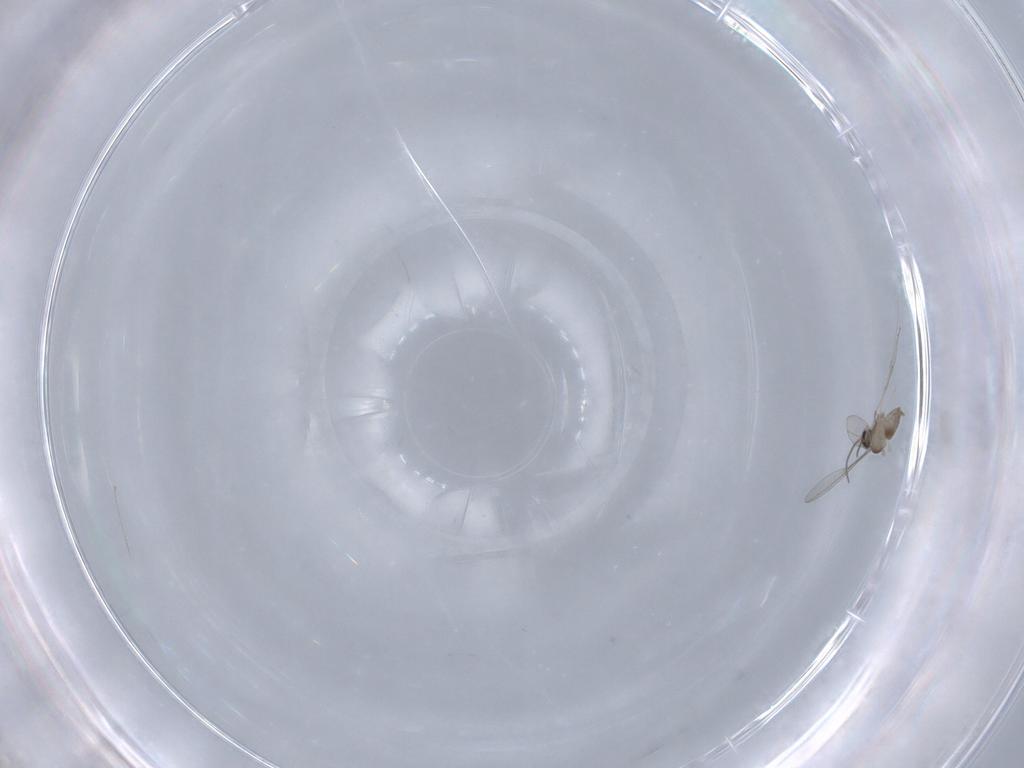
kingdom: Animalia
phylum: Arthropoda
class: Insecta
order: Diptera
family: Cecidomyiidae
